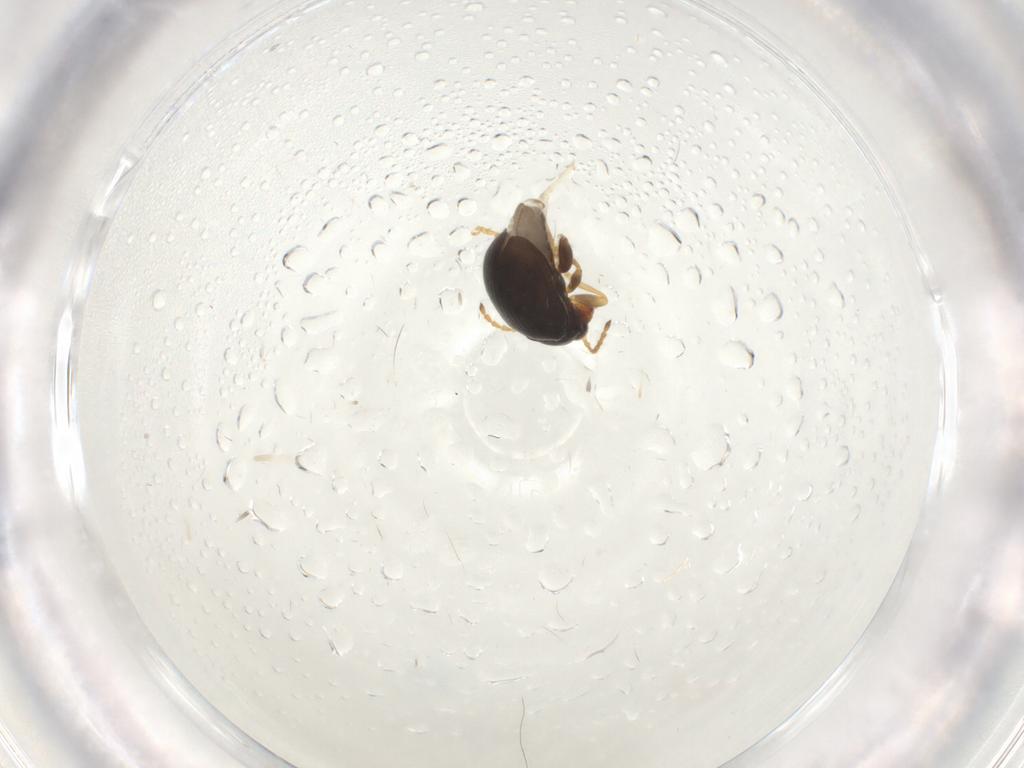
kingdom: Animalia
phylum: Arthropoda
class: Insecta
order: Coleoptera
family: Chrysomelidae
